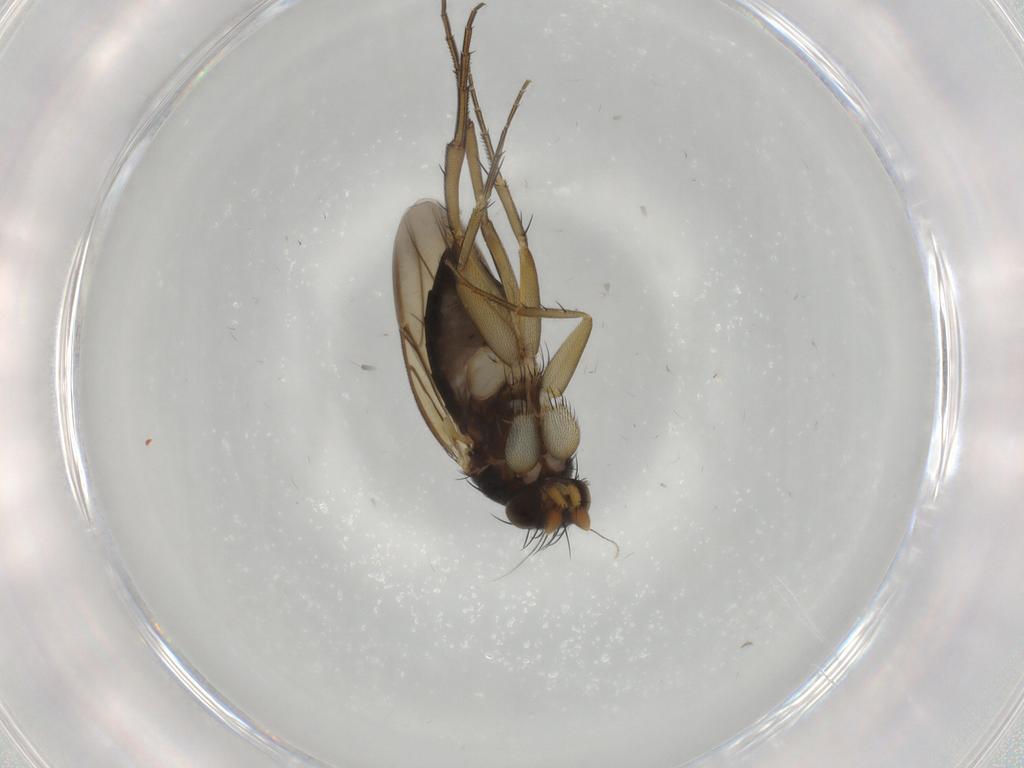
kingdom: Animalia
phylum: Arthropoda
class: Insecta
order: Diptera
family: Phoridae
